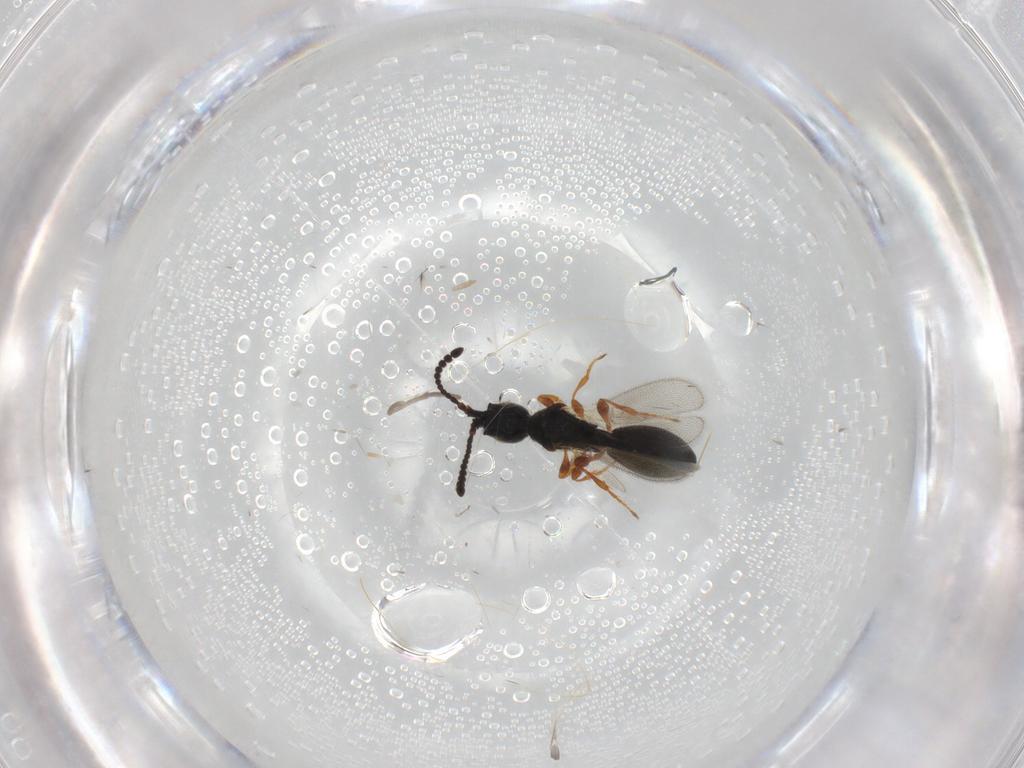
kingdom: Animalia
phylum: Arthropoda
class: Insecta
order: Hymenoptera
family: Diapriidae
